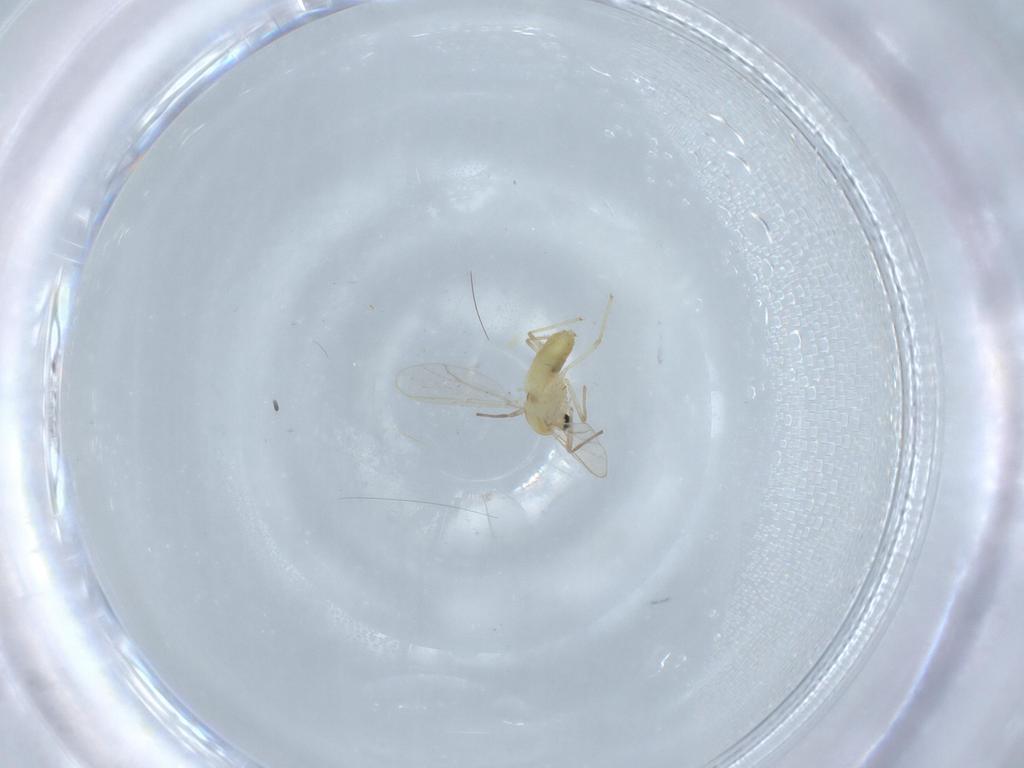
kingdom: Animalia
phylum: Arthropoda
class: Insecta
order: Diptera
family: Chironomidae
